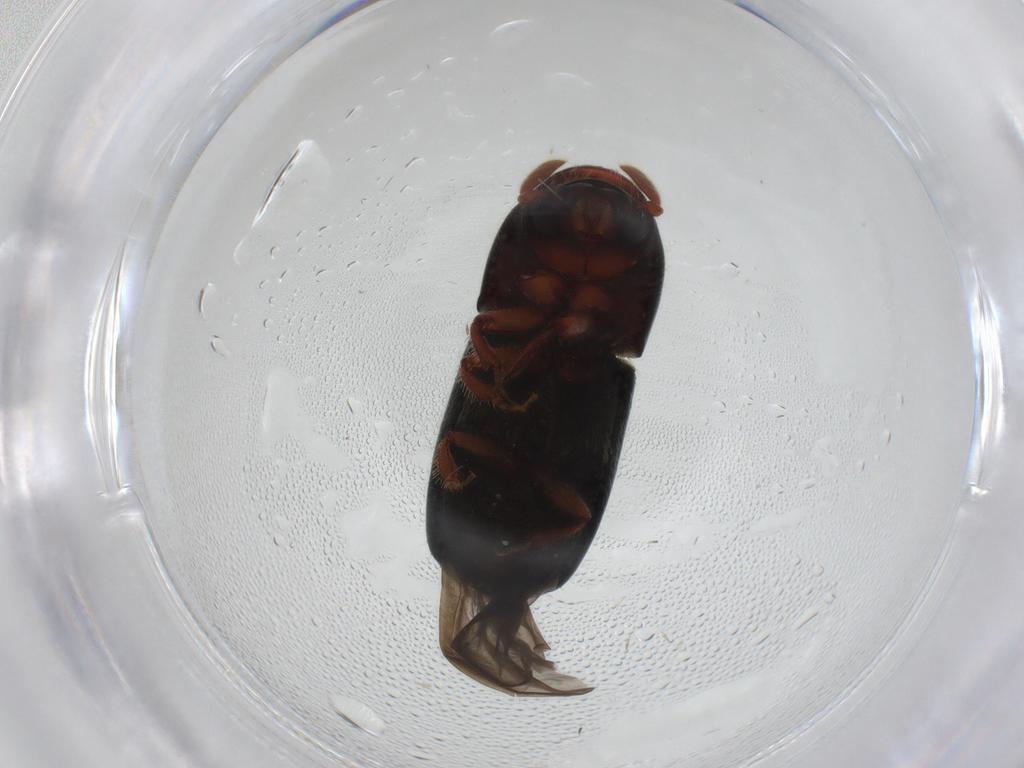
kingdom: Animalia
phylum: Arthropoda
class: Insecta
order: Coleoptera
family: Curculionidae
